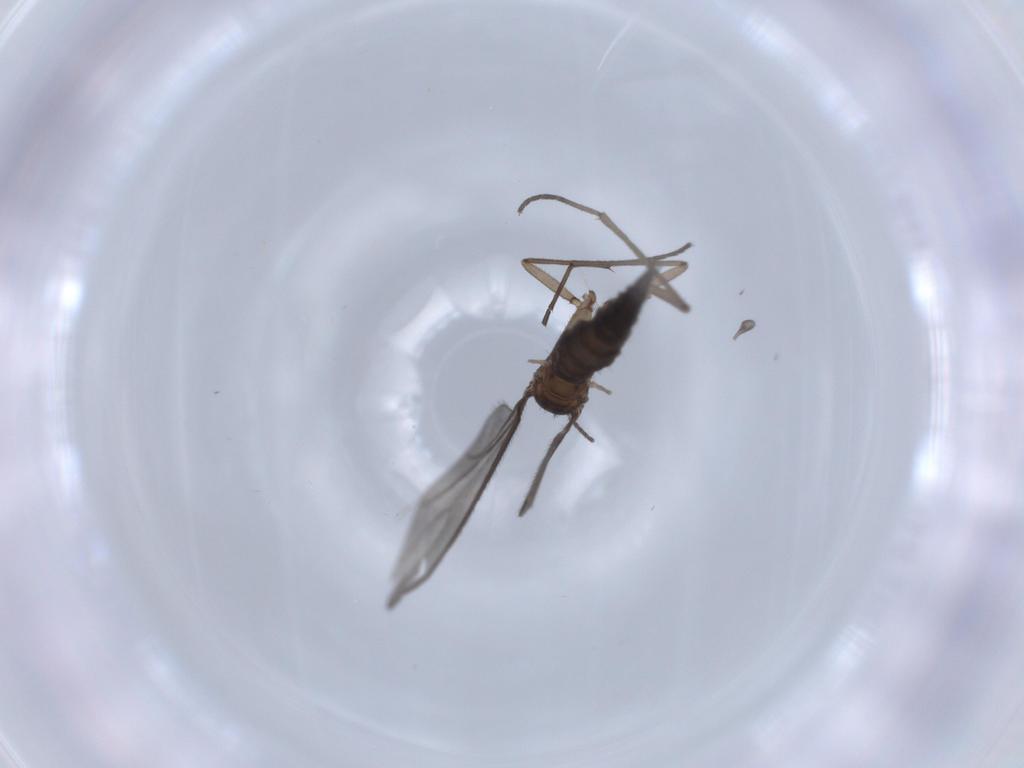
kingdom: Animalia
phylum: Arthropoda
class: Insecta
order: Diptera
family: Sciaridae
